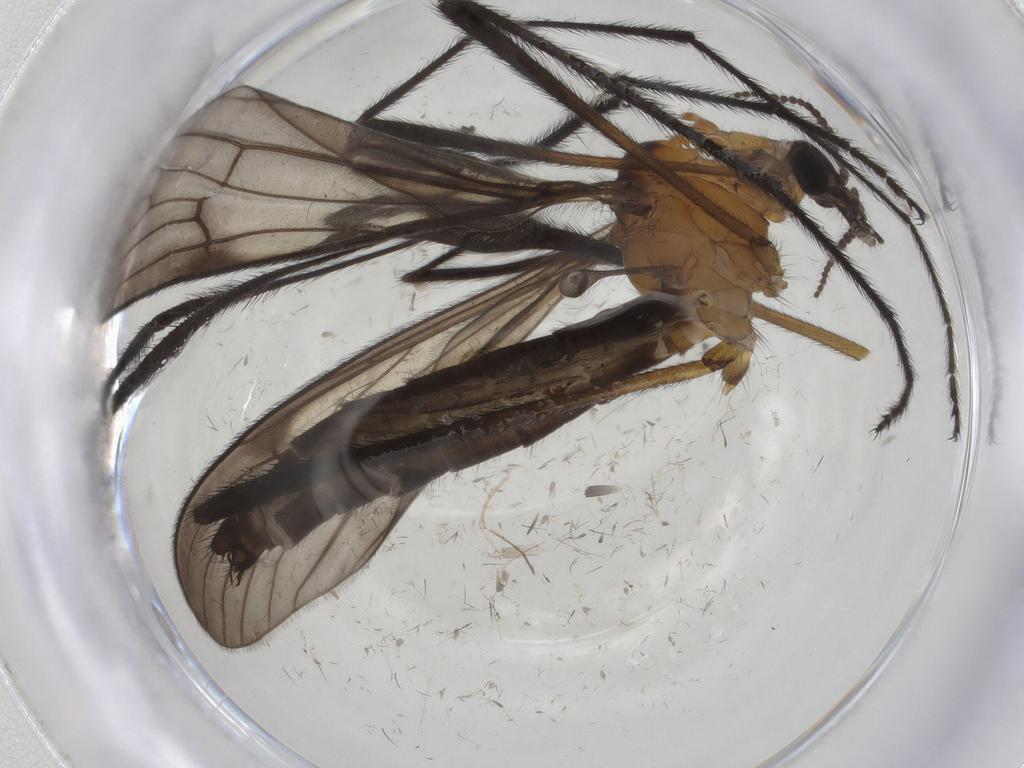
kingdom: Animalia
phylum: Arthropoda
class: Insecta
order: Diptera
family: Limoniidae
